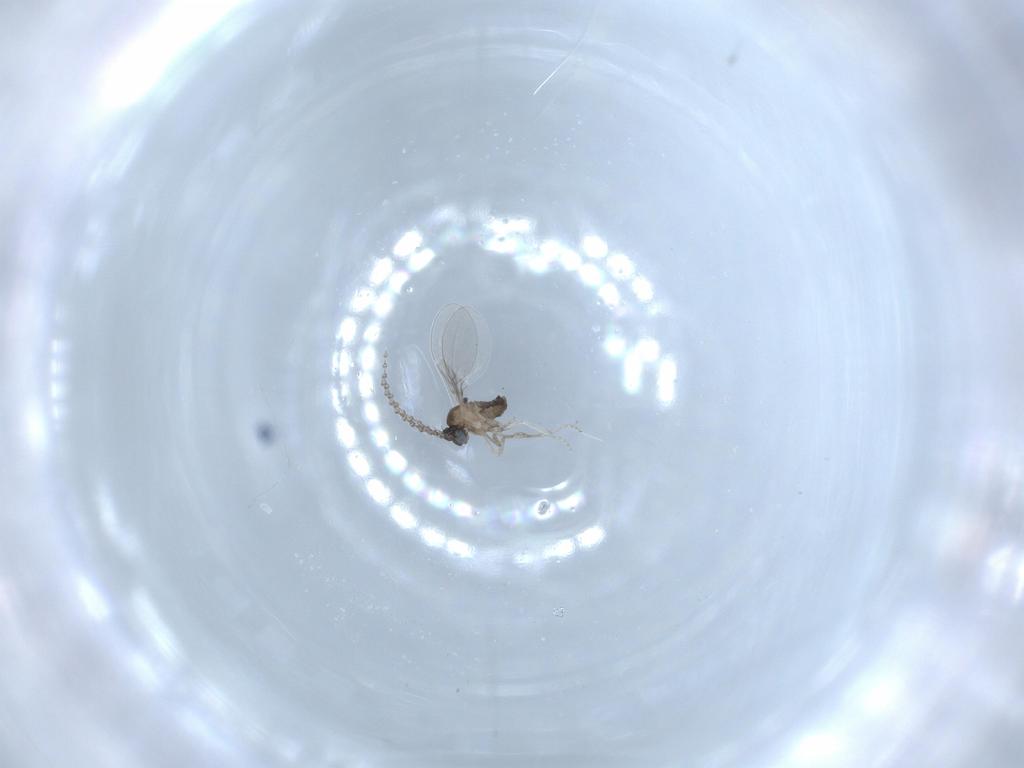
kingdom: Animalia
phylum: Arthropoda
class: Insecta
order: Diptera
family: Cecidomyiidae
